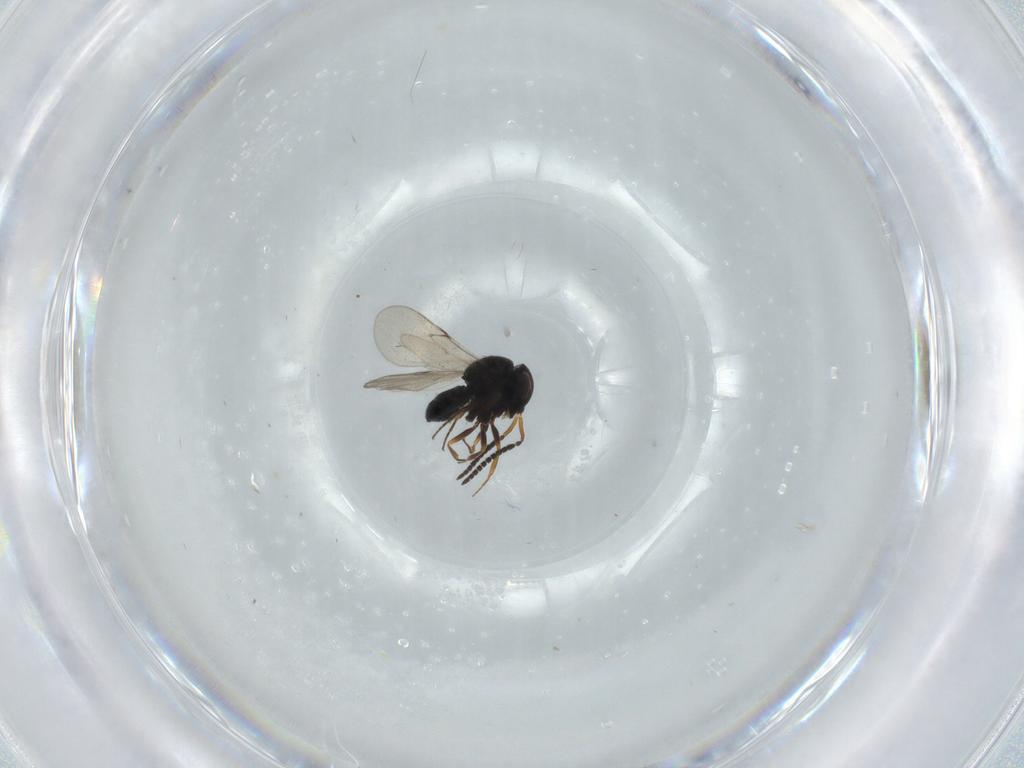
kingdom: Animalia
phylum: Arthropoda
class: Insecta
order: Hymenoptera
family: Scelionidae
